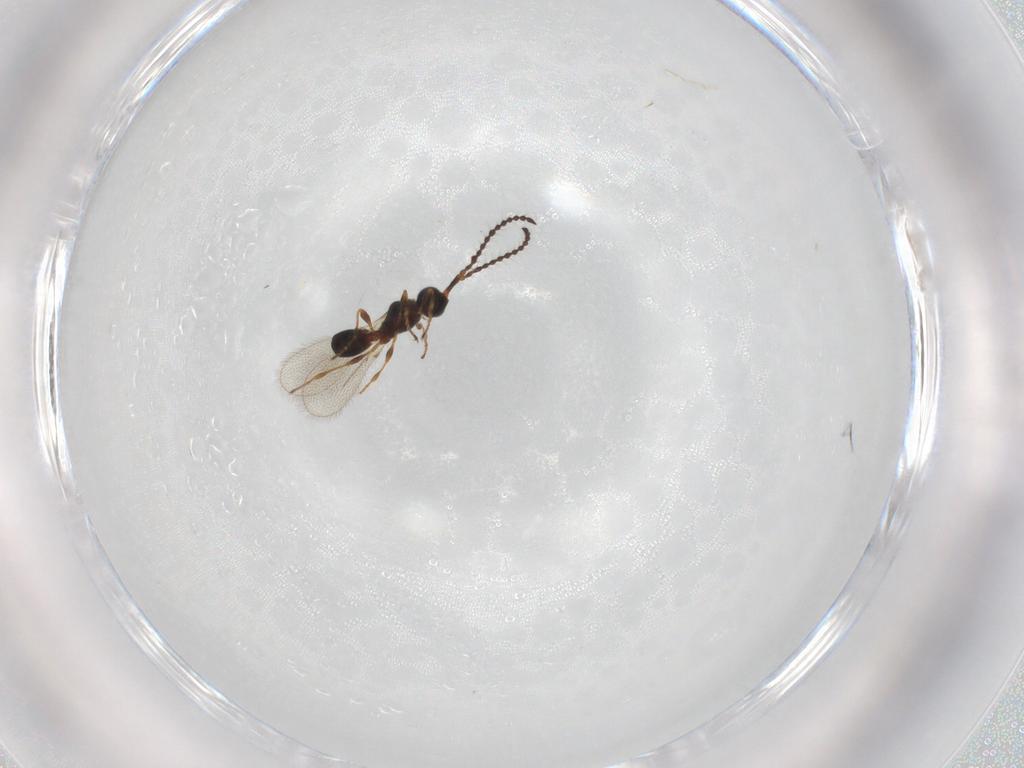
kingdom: Animalia
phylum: Arthropoda
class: Insecta
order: Hymenoptera
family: Diapriidae
